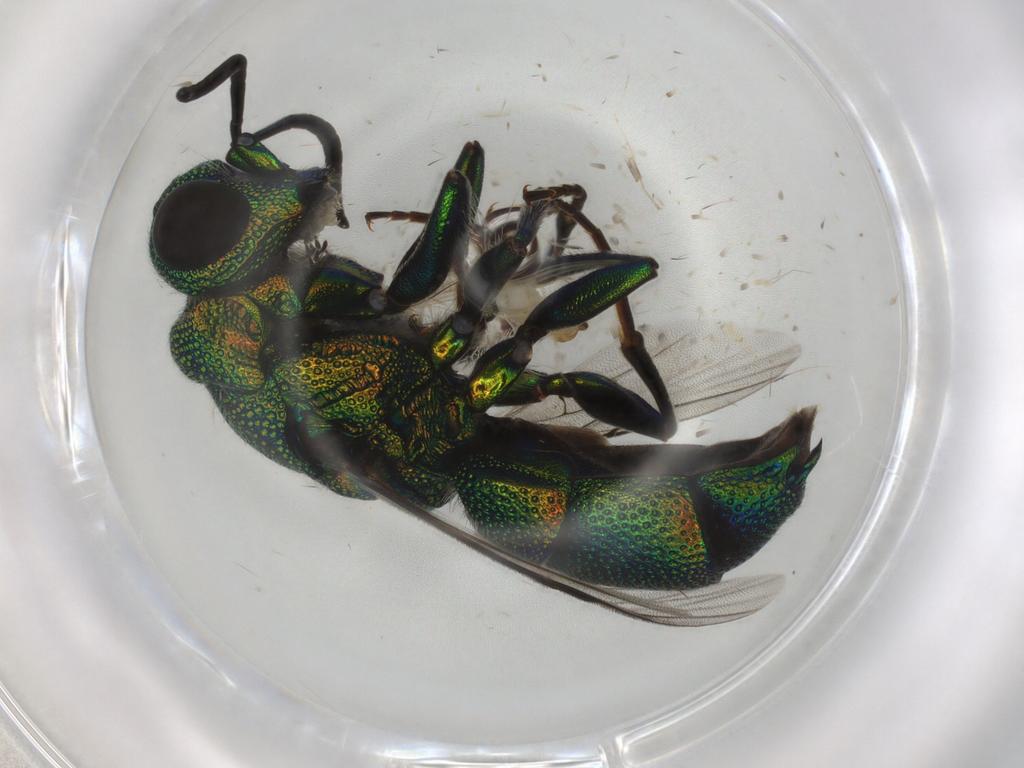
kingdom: Animalia
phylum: Arthropoda
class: Insecta
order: Hymenoptera
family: Chrysididae
